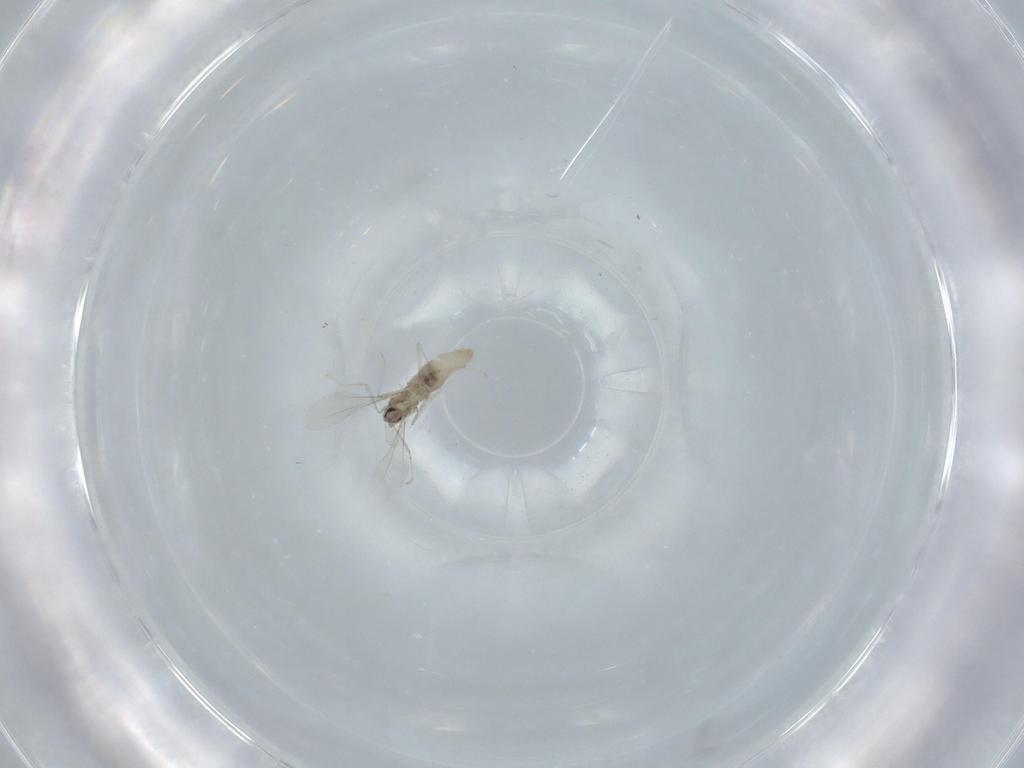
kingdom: Animalia
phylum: Arthropoda
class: Insecta
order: Diptera
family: Cecidomyiidae
